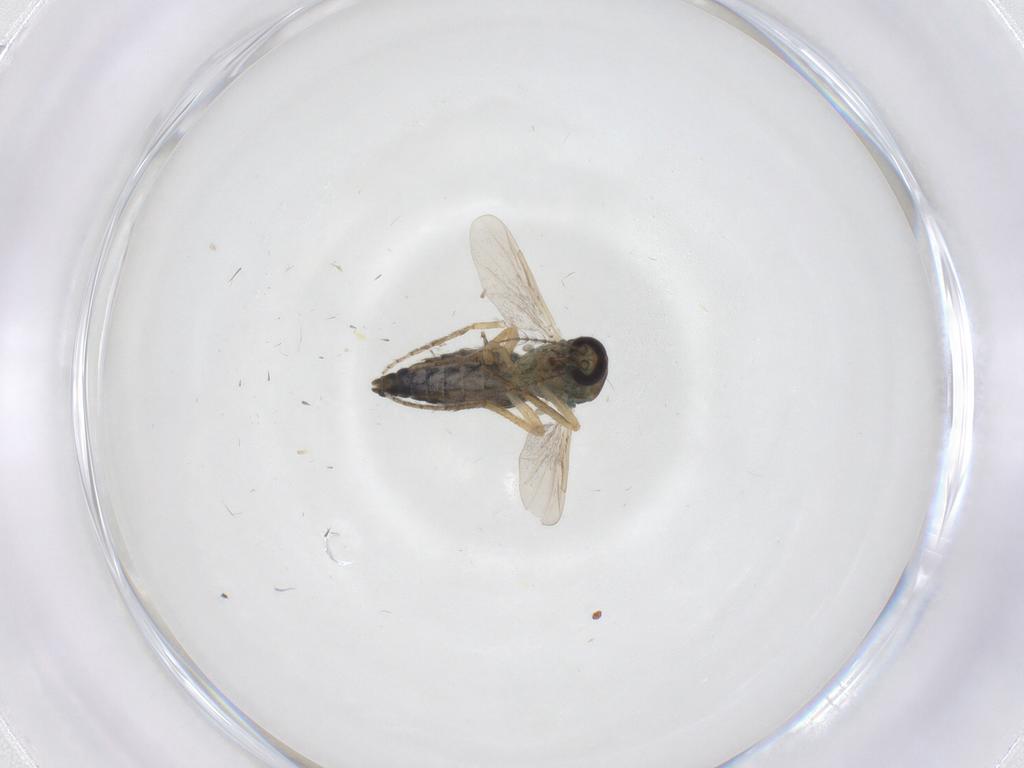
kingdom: Animalia
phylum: Arthropoda
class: Insecta
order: Diptera
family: Ceratopogonidae
